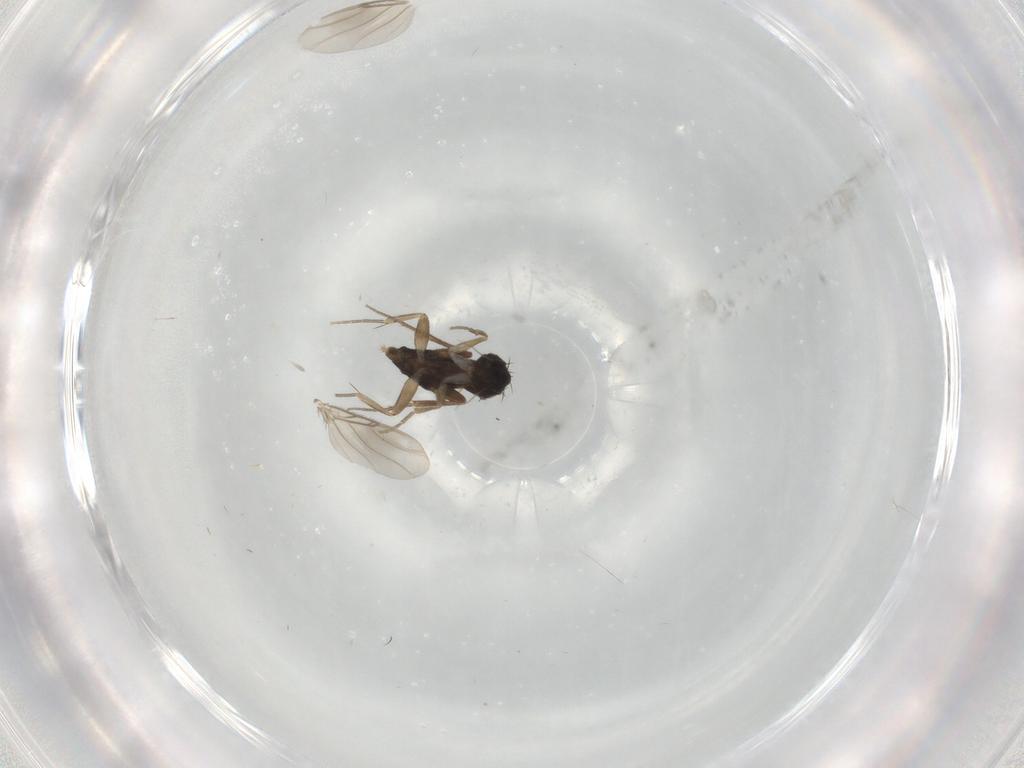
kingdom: Animalia
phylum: Arthropoda
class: Insecta
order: Diptera
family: Phoridae
